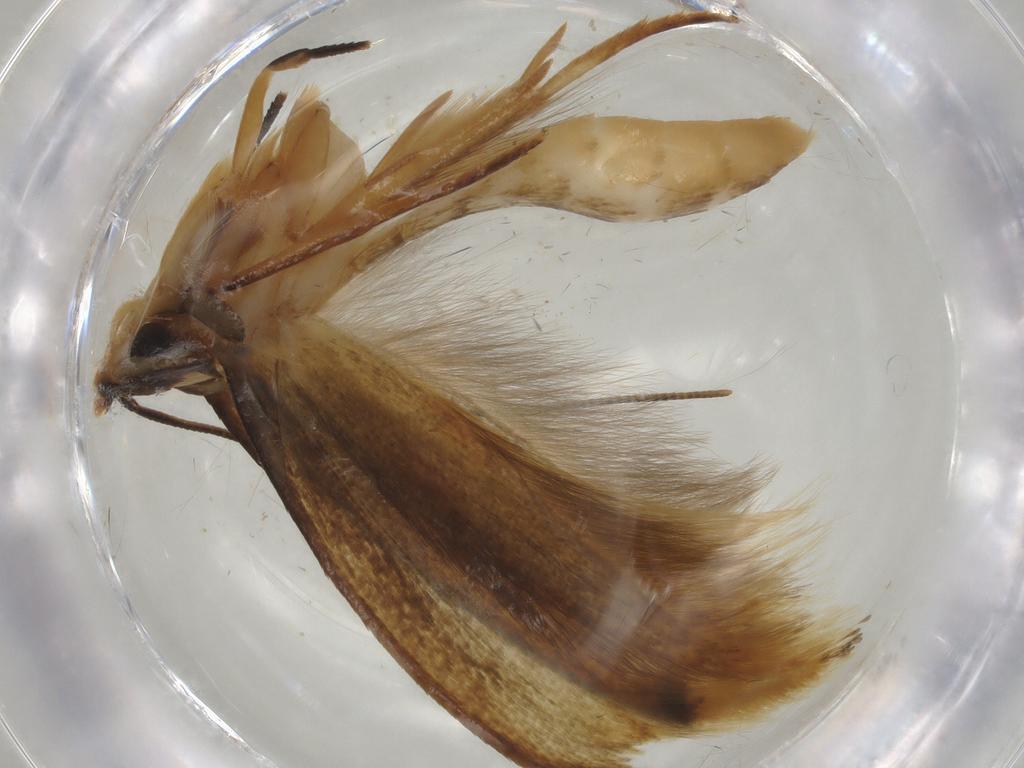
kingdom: Animalia
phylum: Arthropoda
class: Insecta
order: Lepidoptera
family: Tineidae
